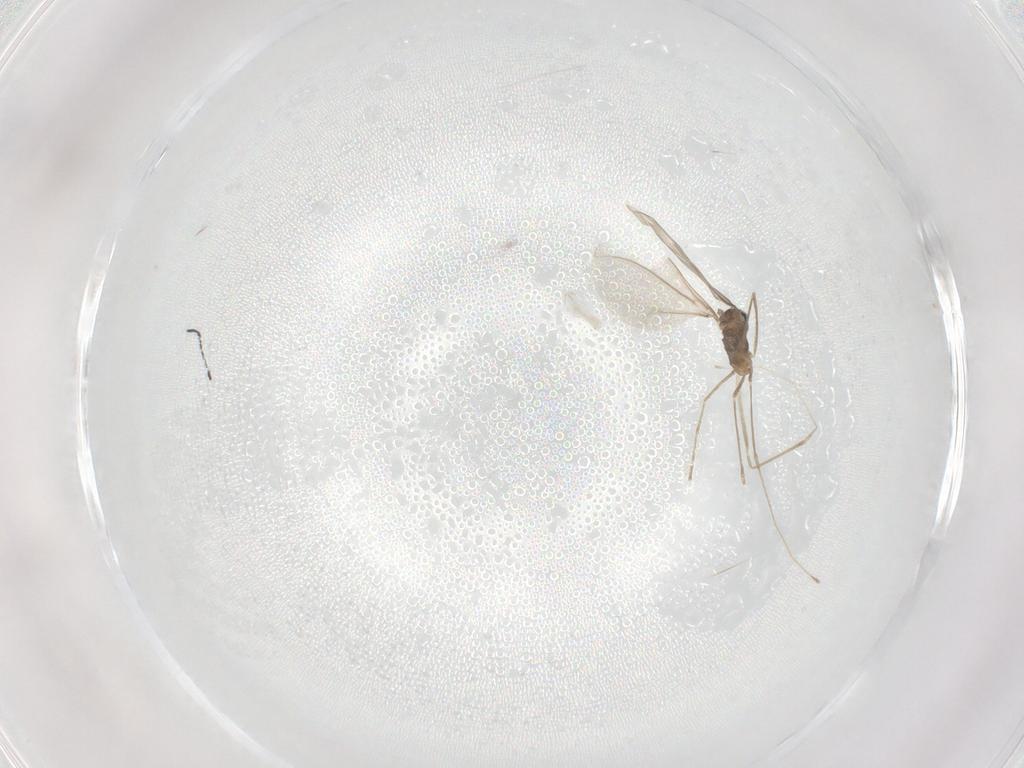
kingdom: Animalia
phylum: Arthropoda
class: Insecta
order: Diptera
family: Cecidomyiidae
